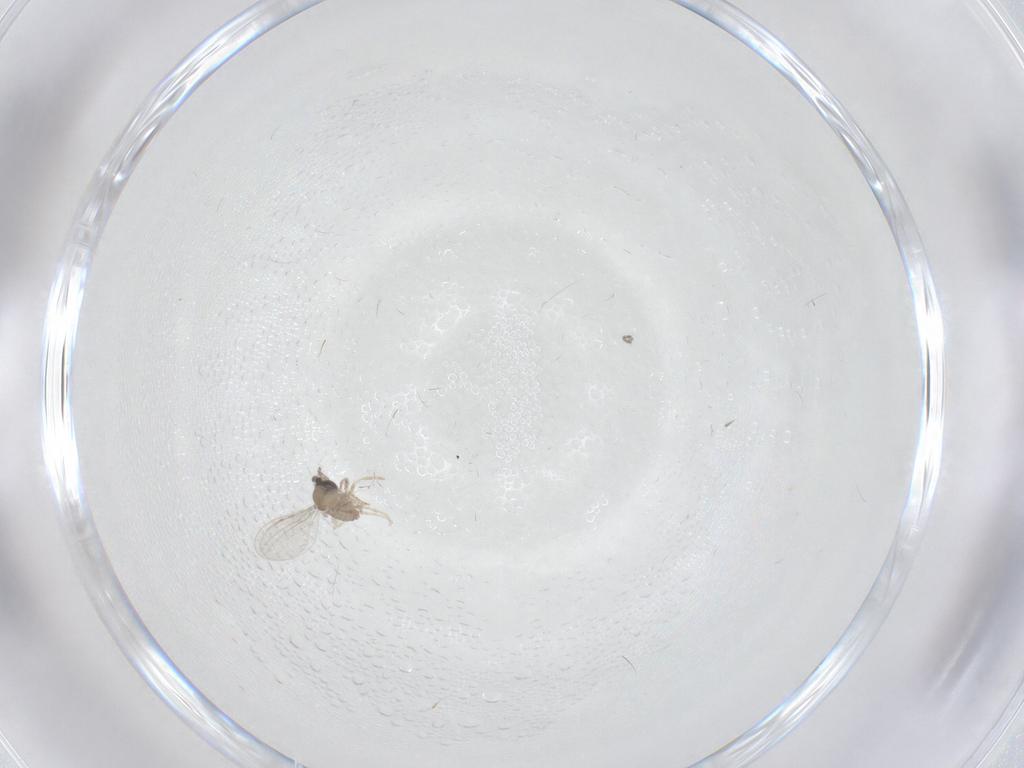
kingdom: Animalia
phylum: Arthropoda
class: Insecta
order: Diptera
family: Cecidomyiidae
